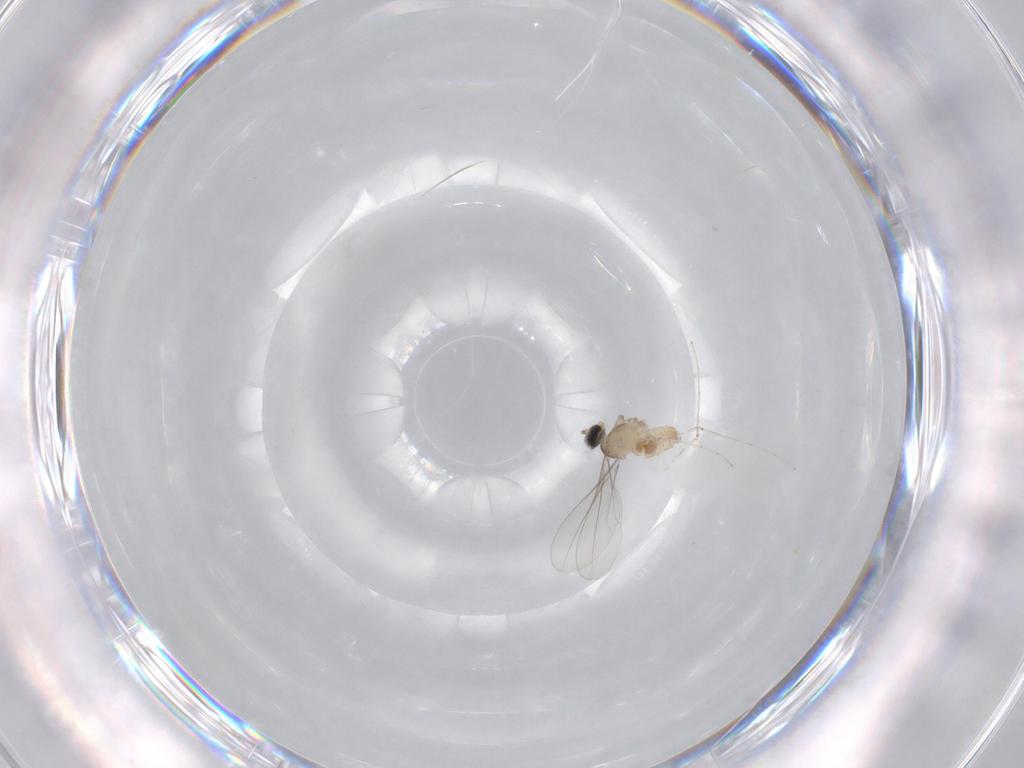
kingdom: Animalia
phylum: Arthropoda
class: Insecta
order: Diptera
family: Cecidomyiidae
